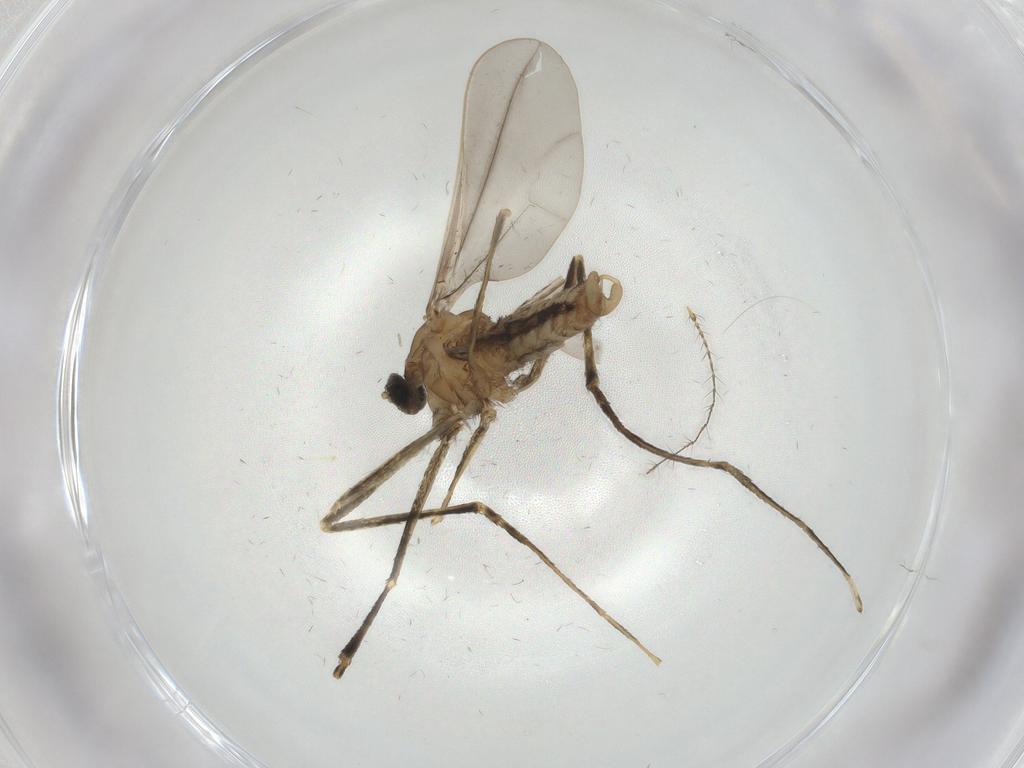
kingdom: Animalia
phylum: Arthropoda
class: Insecta
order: Diptera
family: Cecidomyiidae
